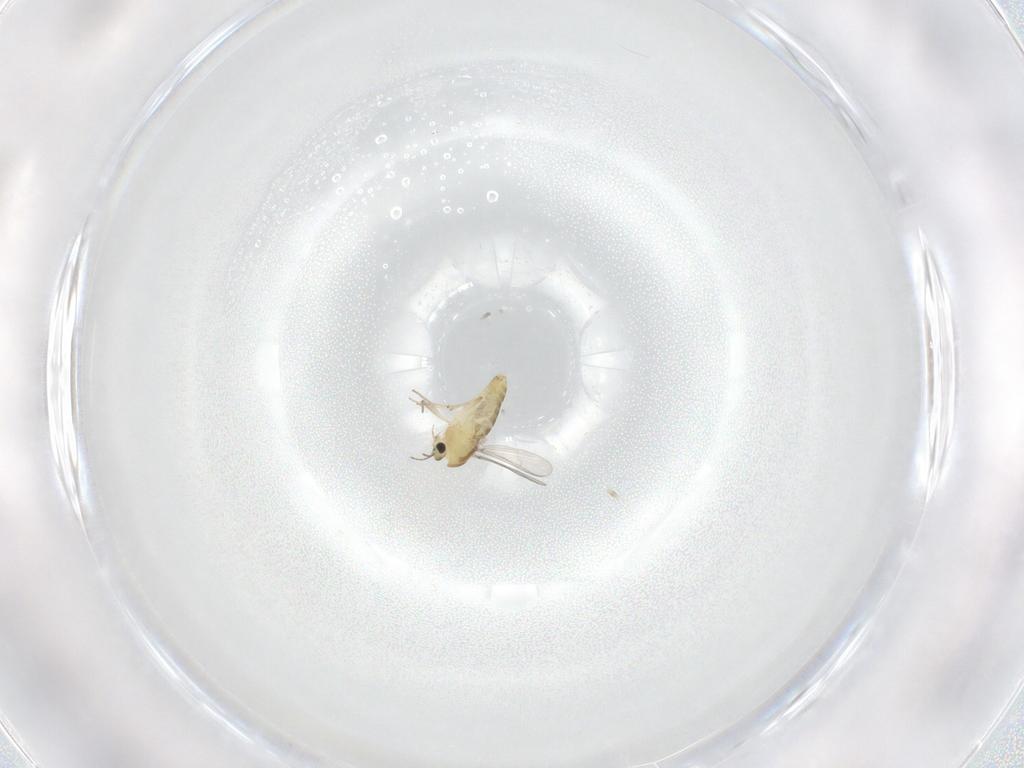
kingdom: Animalia
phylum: Arthropoda
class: Insecta
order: Diptera
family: Chironomidae
